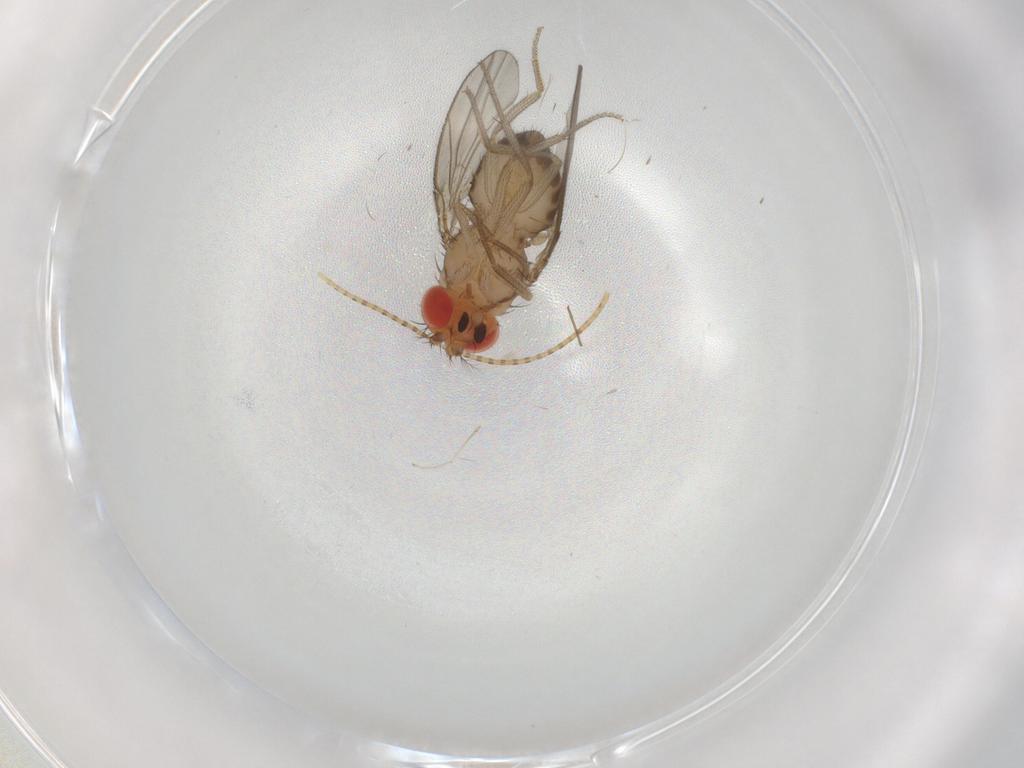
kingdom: Animalia
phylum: Arthropoda
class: Insecta
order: Diptera
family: Drosophilidae
